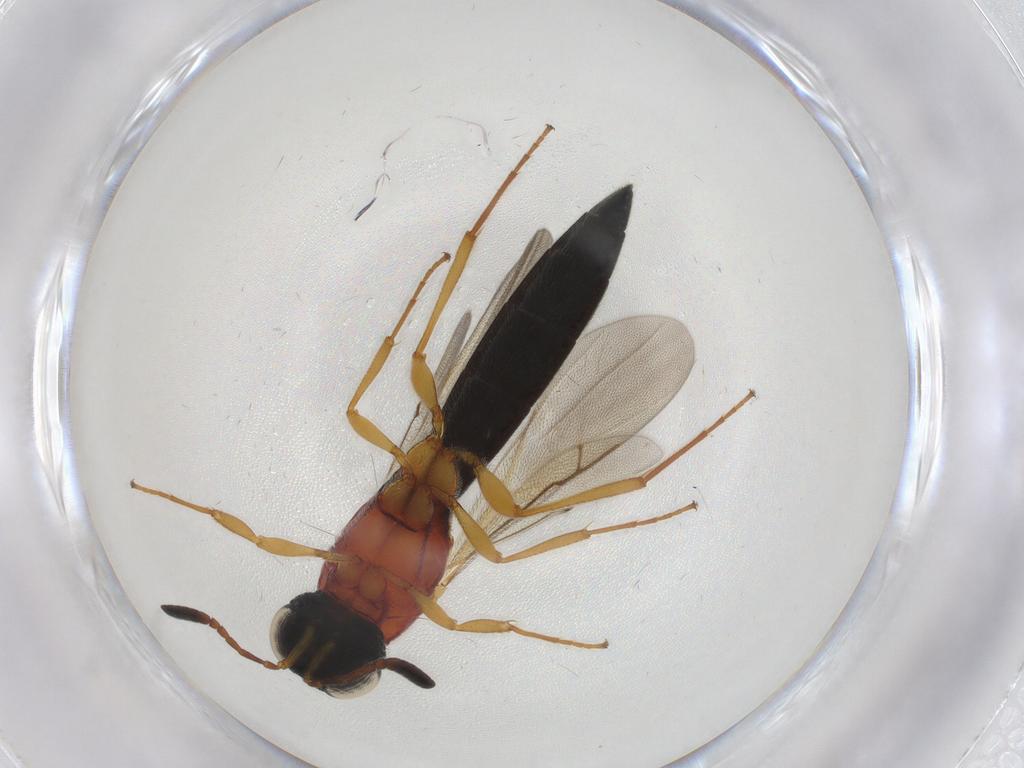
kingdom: Animalia
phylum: Arthropoda
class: Insecta
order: Hymenoptera
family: Scelionidae
